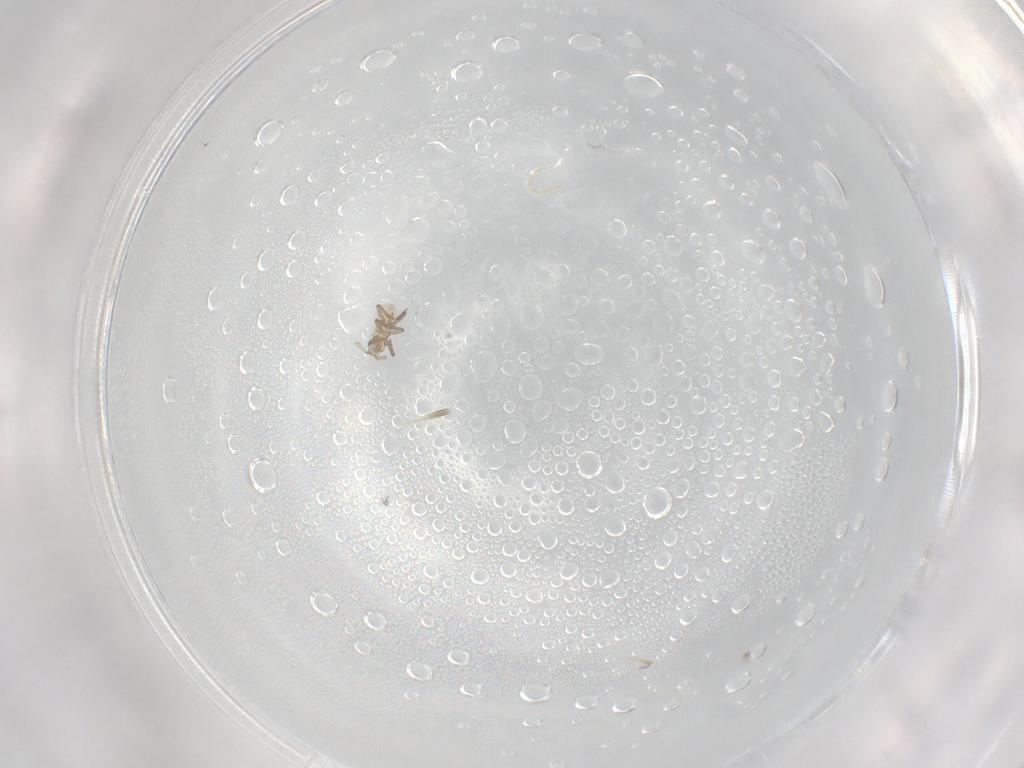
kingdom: Animalia
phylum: Arthropoda
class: Insecta
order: Hemiptera
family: Aphididae
